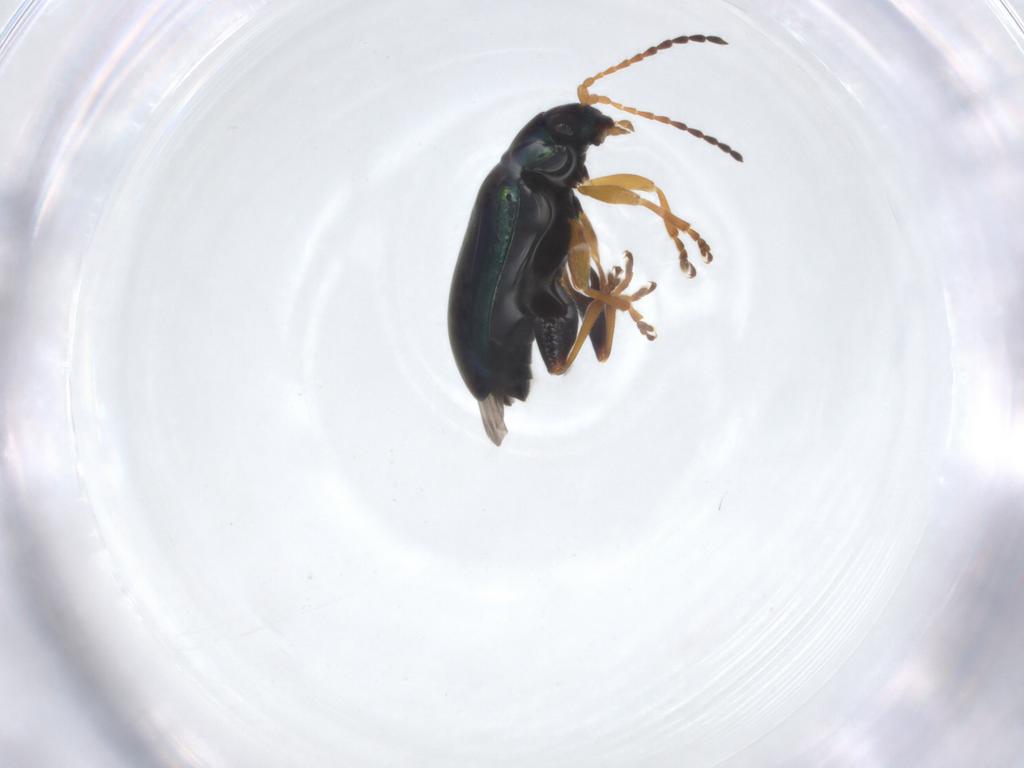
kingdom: Animalia
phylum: Arthropoda
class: Insecta
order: Coleoptera
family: Chrysomelidae
